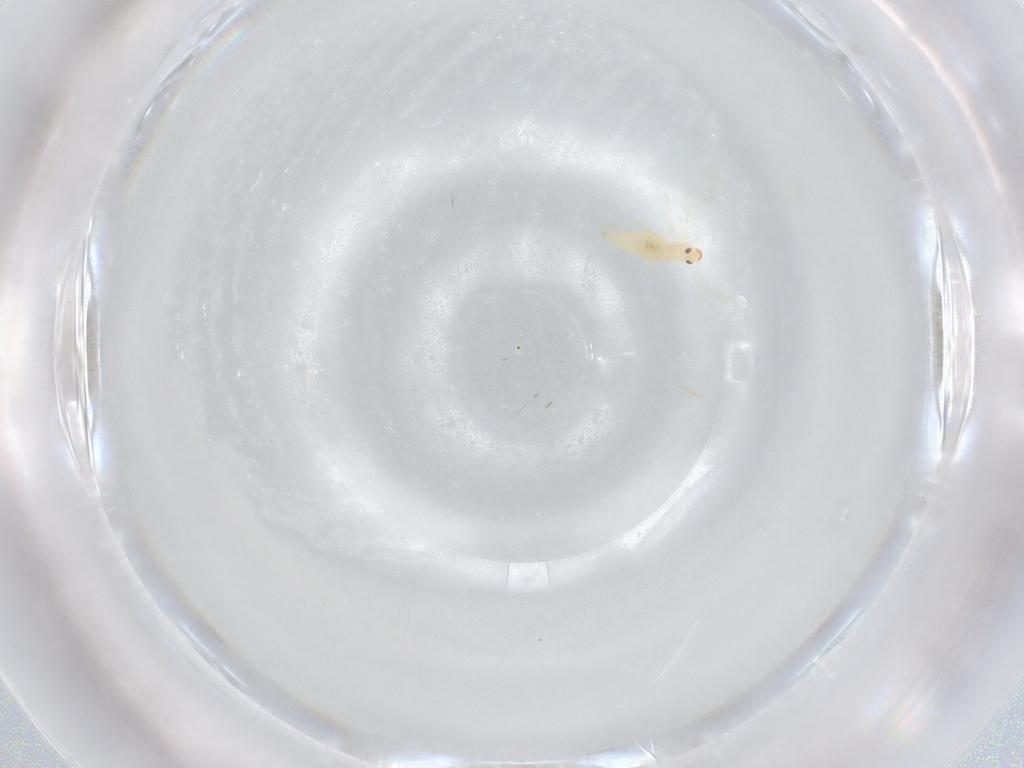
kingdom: Animalia
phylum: Arthropoda
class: Insecta
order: Diptera
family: Cecidomyiidae
